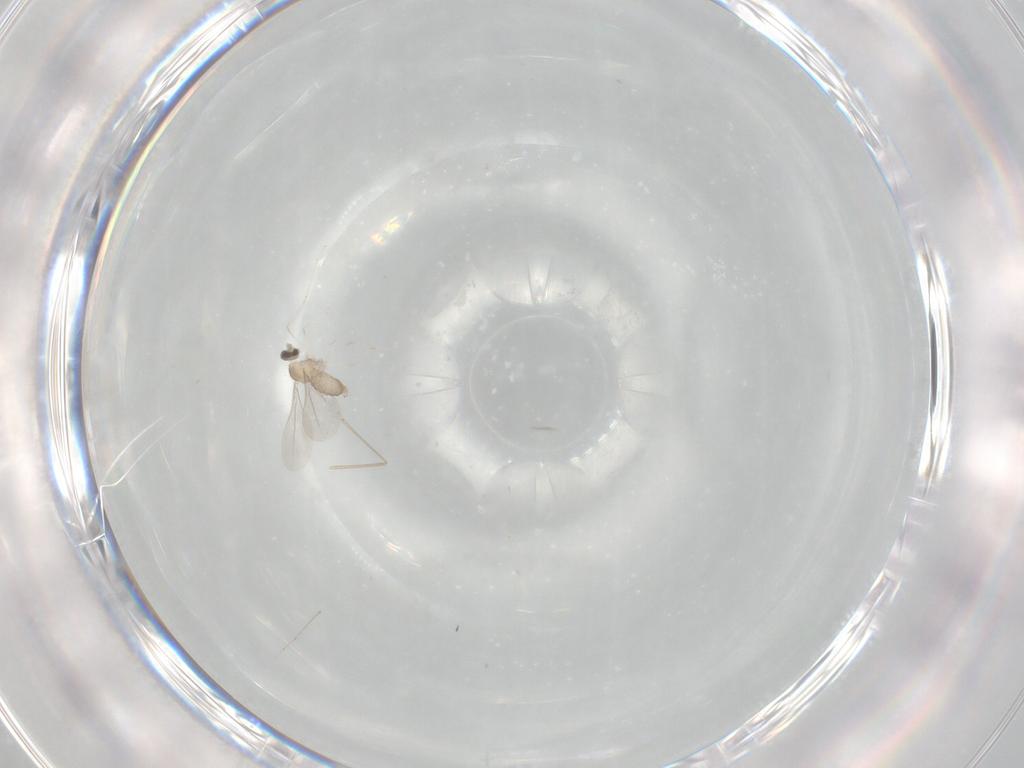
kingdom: Animalia
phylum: Arthropoda
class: Insecta
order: Diptera
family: Cecidomyiidae
